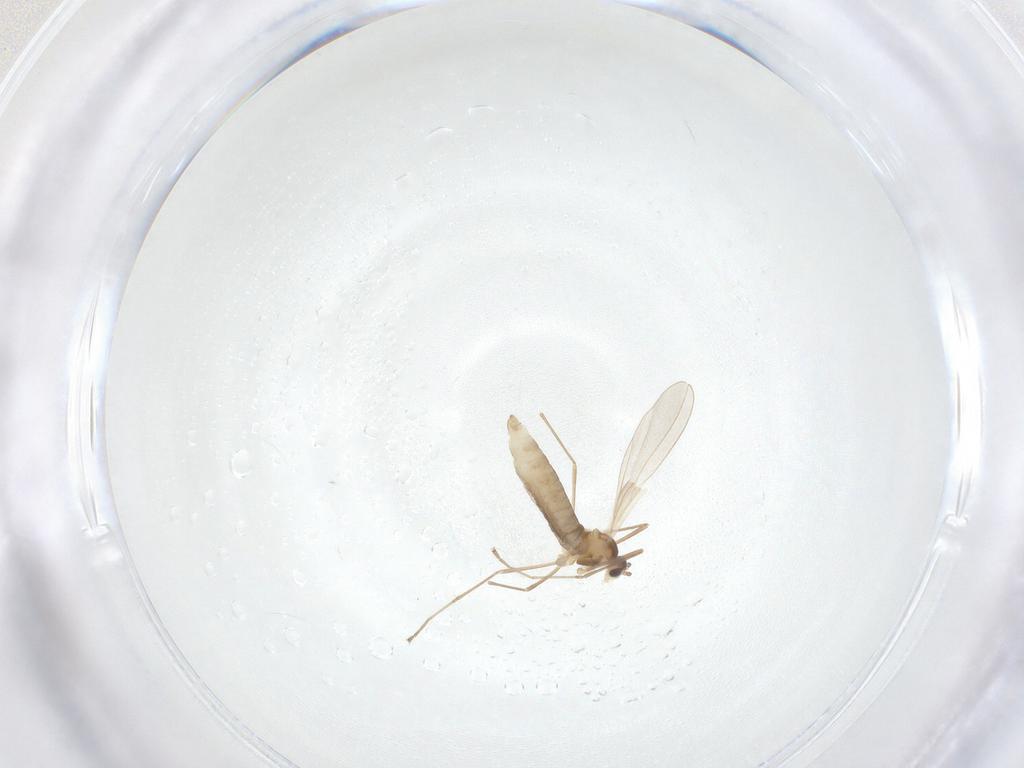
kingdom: Animalia
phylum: Arthropoda
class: Insecta
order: Diptera
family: Cecidomyiidae
